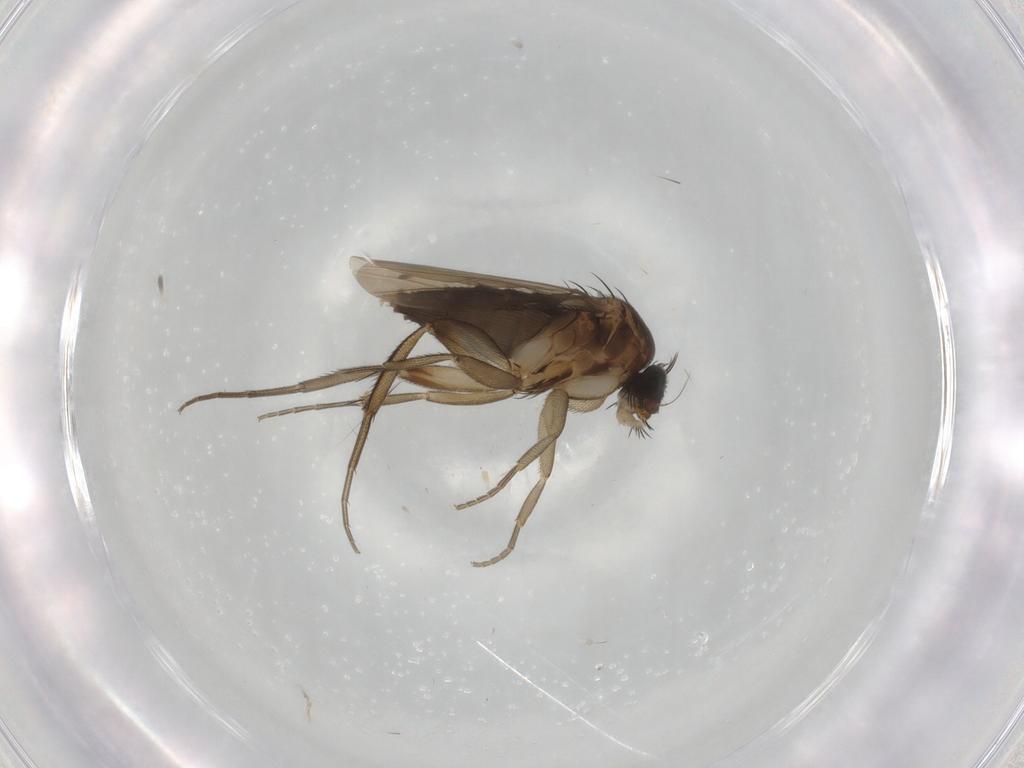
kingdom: Animalia
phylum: Arthropoda
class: Insecta
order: Diptera
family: Phoridae
